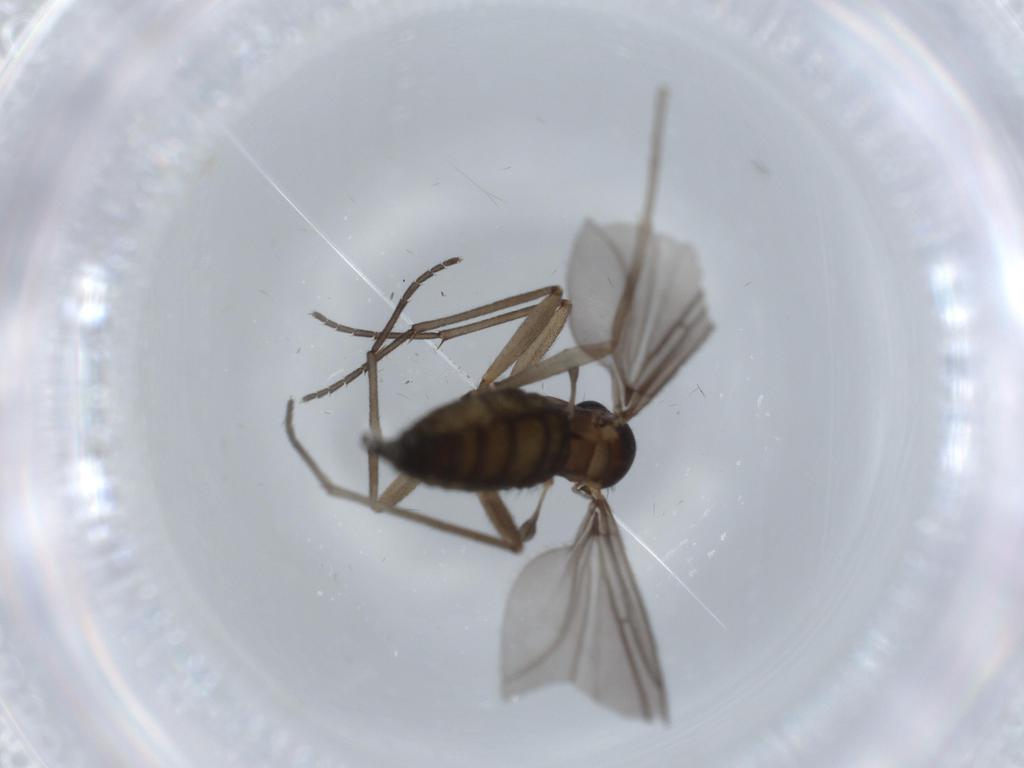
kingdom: Animalia
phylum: Arthropoda
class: Insecta
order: Diptera
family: Sciaridae
